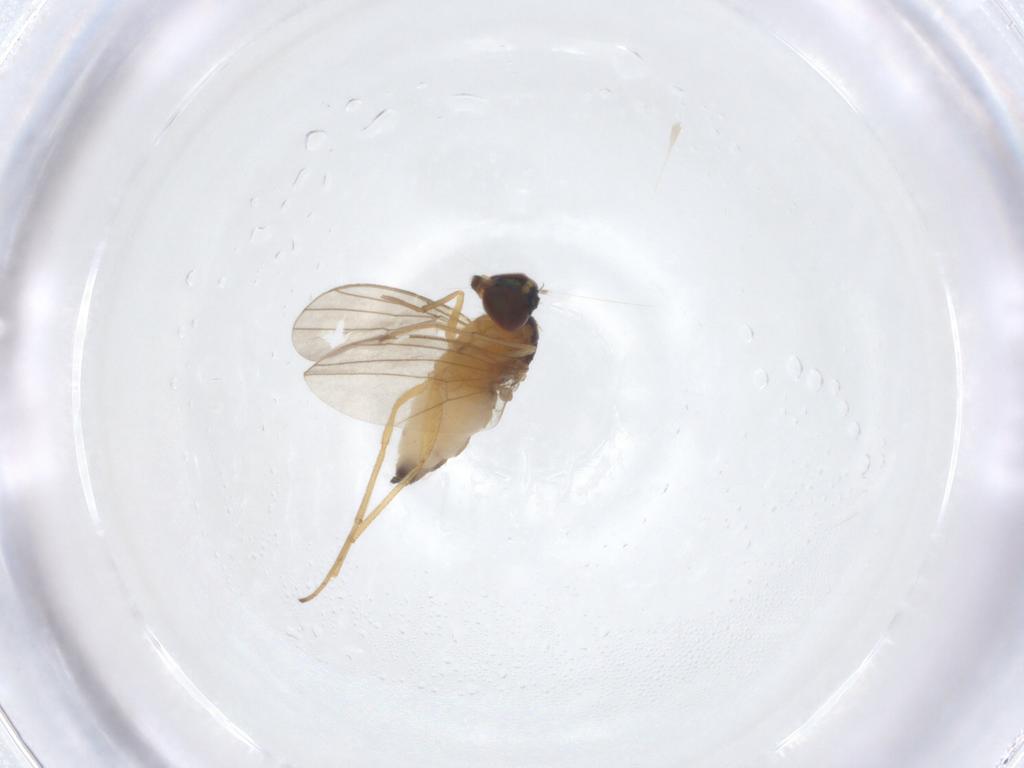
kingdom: Animalia
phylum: Arthropoda
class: Insecta
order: Diptera
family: Dolichopodidae
